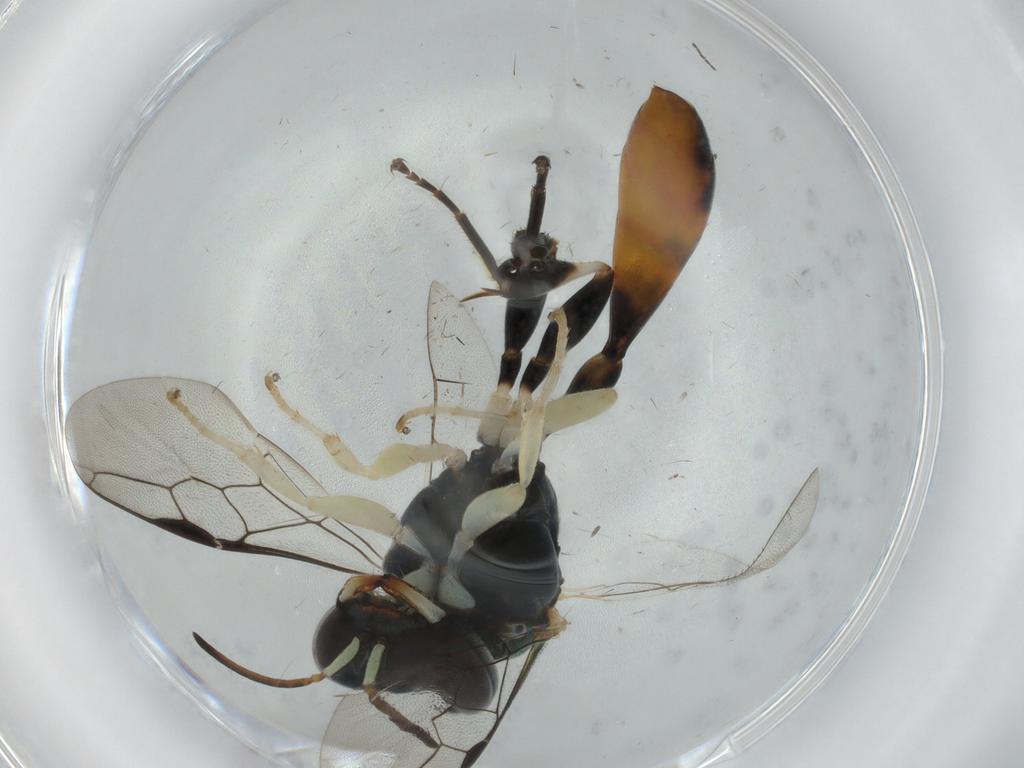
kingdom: Animalia
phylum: Arthropoda
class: Insecta
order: Hymenoptera
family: Crabronidae
